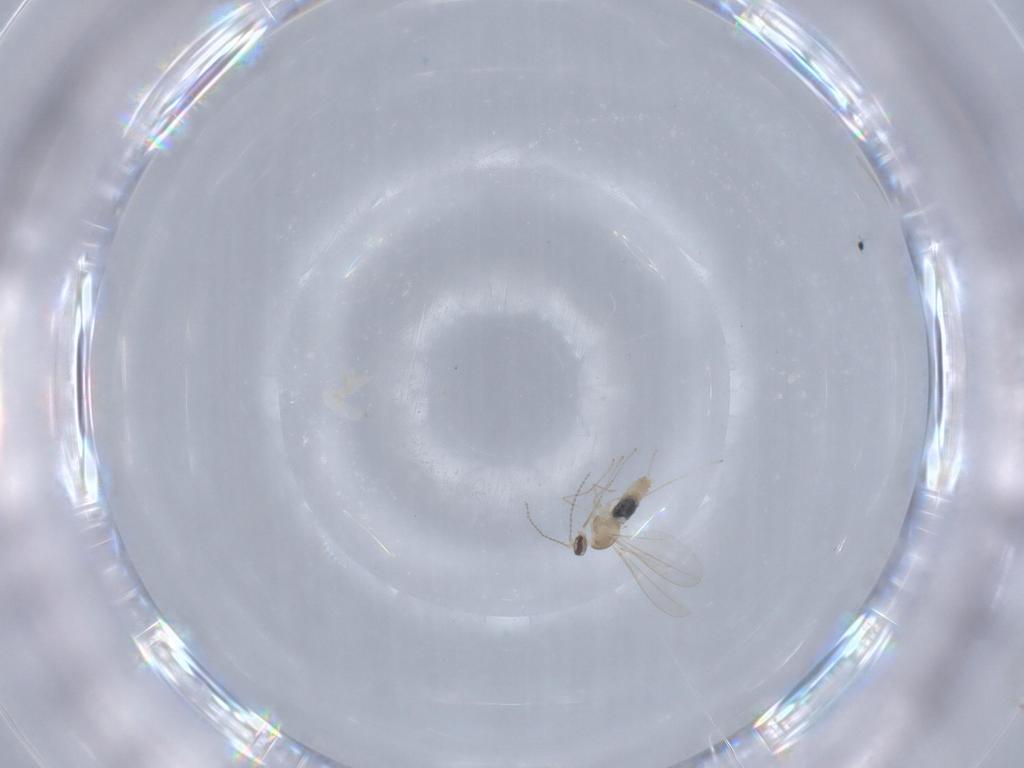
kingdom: Animalia
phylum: Arthropoda
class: Insecta
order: Diptera
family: Cecidomyiidae
